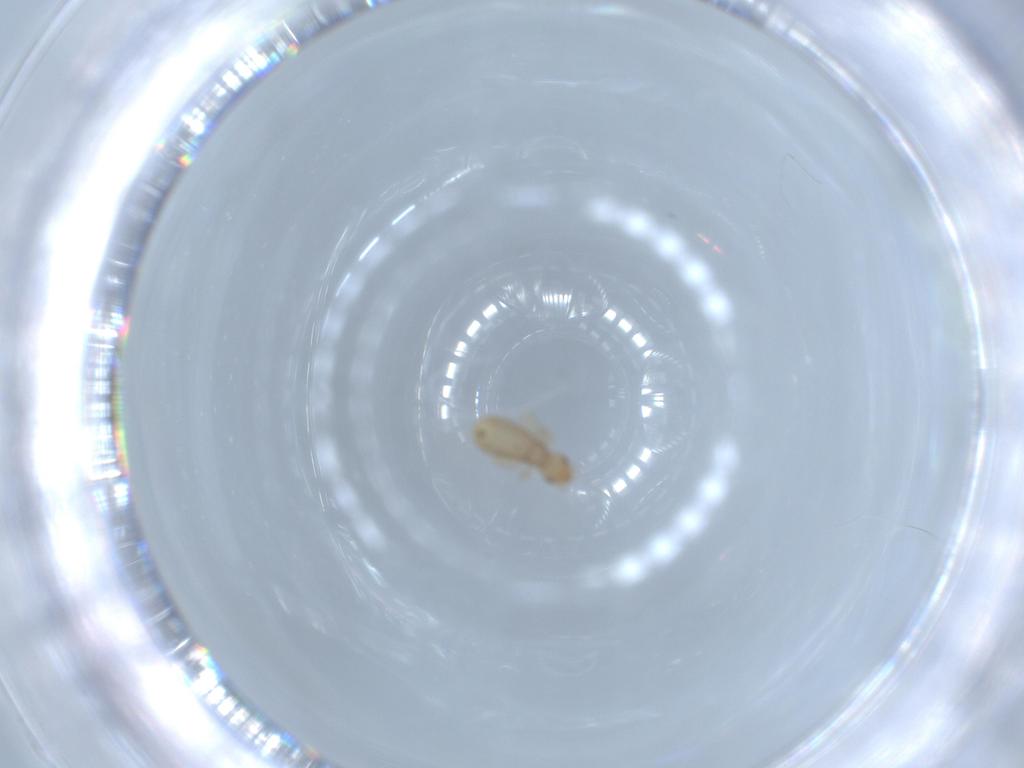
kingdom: Animalia
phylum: Arthropoda
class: Insecta
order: Psocodea
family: Liposcelididae
